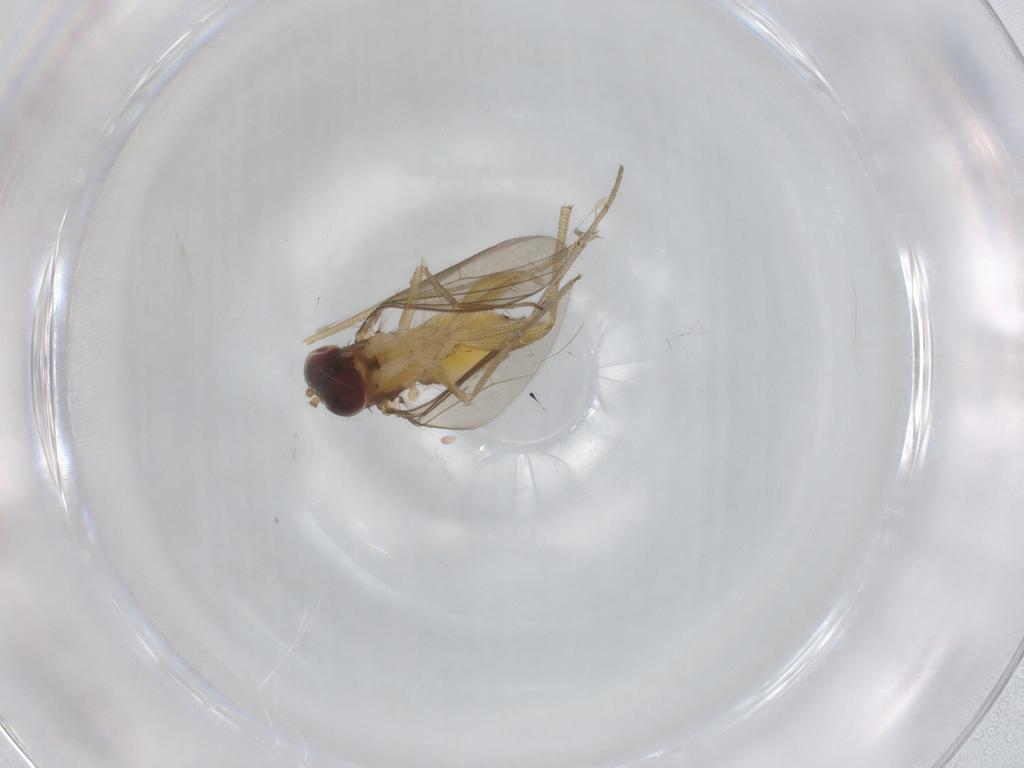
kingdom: Animalia
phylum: Arthropoda
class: Insecta
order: Diptera
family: Dolichopodidae
